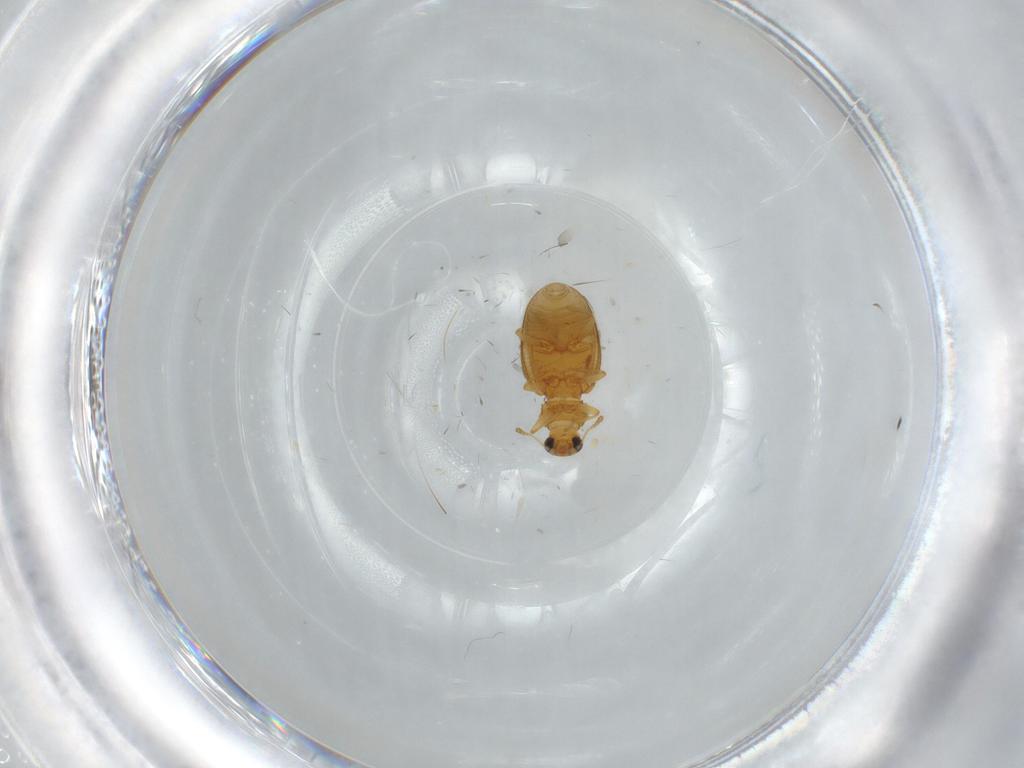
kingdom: Animalia
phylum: Arthropoda
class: Insecta
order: Coleoptera
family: Latridiidae
